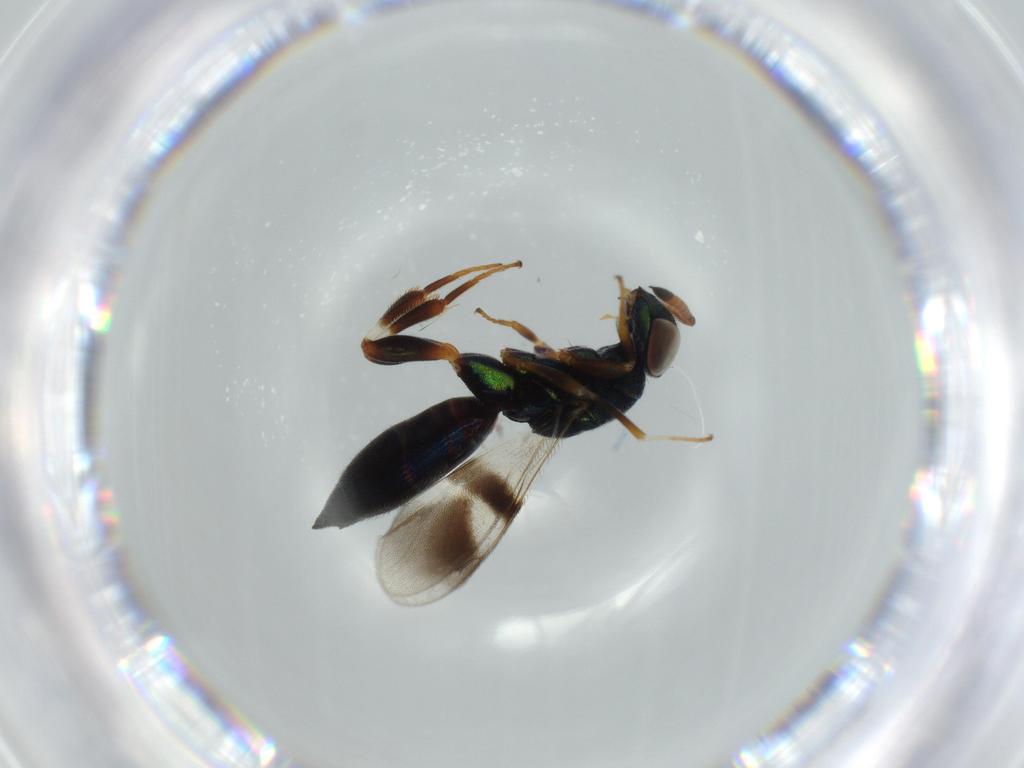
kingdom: Animalia
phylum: Arthropoda
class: Insecta
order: Hymenoptera
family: Cleonyminae
